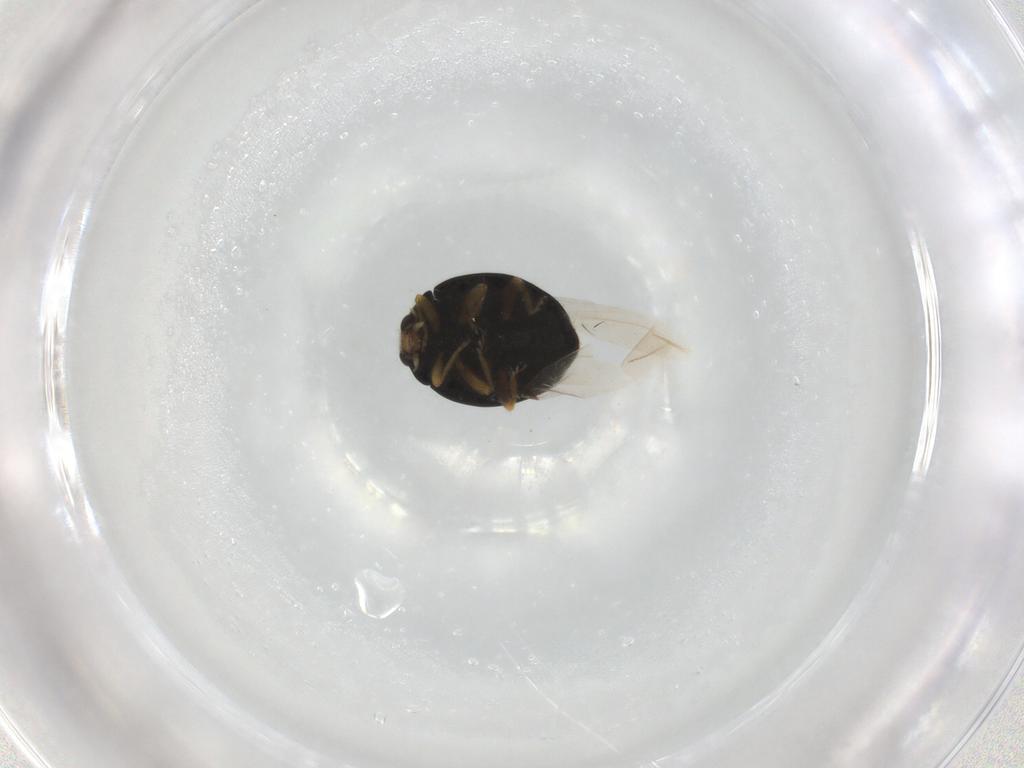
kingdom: Animalia
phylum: Arthropoda
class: Insecta
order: Coleoptera
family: Coccinellidae
